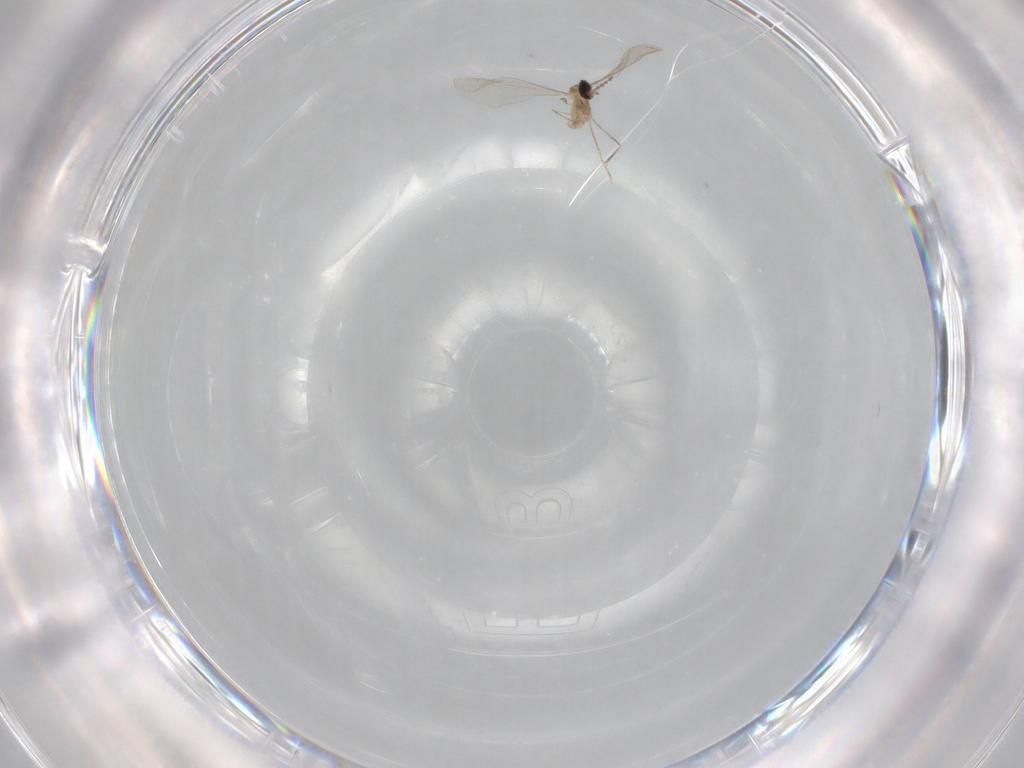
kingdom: Animalia
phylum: Arthropoda
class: Insecta
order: Diptera
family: Cecidomyiidae
